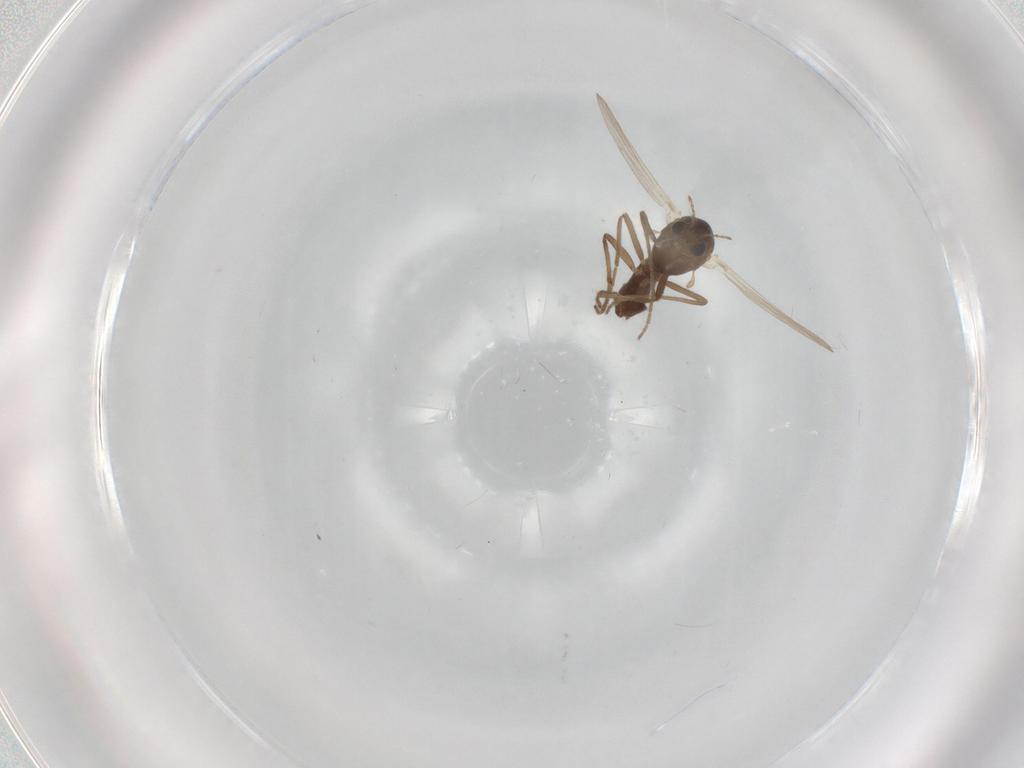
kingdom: Animalia
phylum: Arthropoda
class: Insecta
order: Diptera
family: Chironomidae
